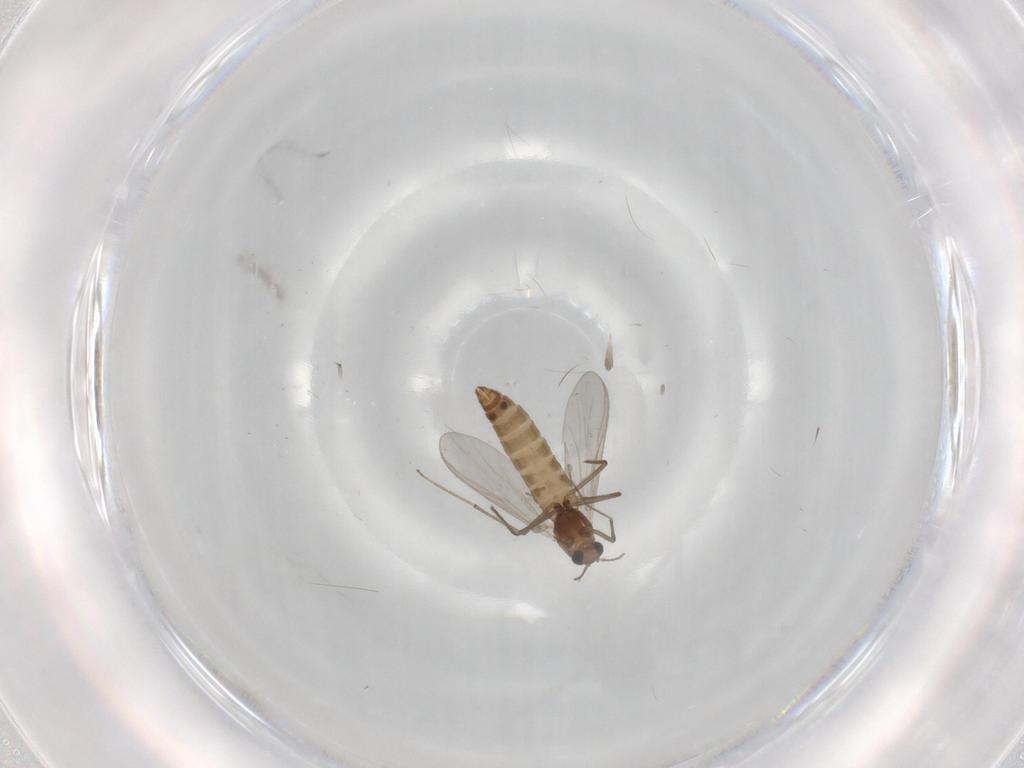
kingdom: Animalia
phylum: Arthropoda
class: Insecta
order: Diptera
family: Chironomidae
